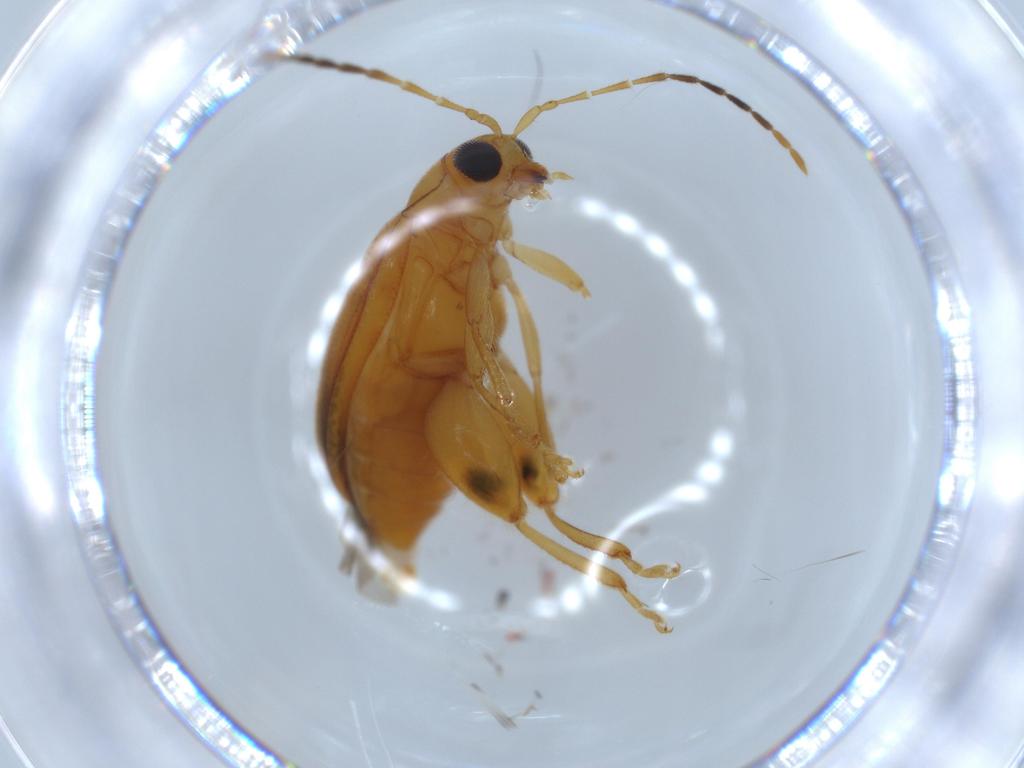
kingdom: Animalia
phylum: Arthropoda
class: Insecta
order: Coleoptera
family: Chrysomelidae
